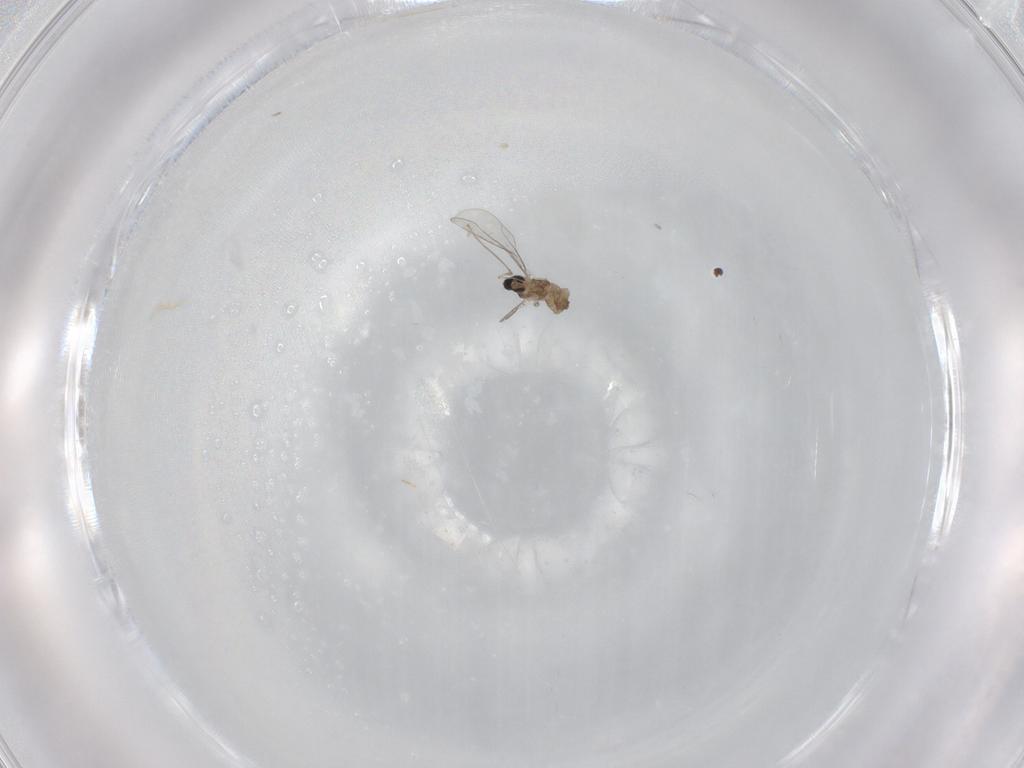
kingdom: Animalia
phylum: Arthropoda
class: Insecta
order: Diptera
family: Cecidomyiidae
